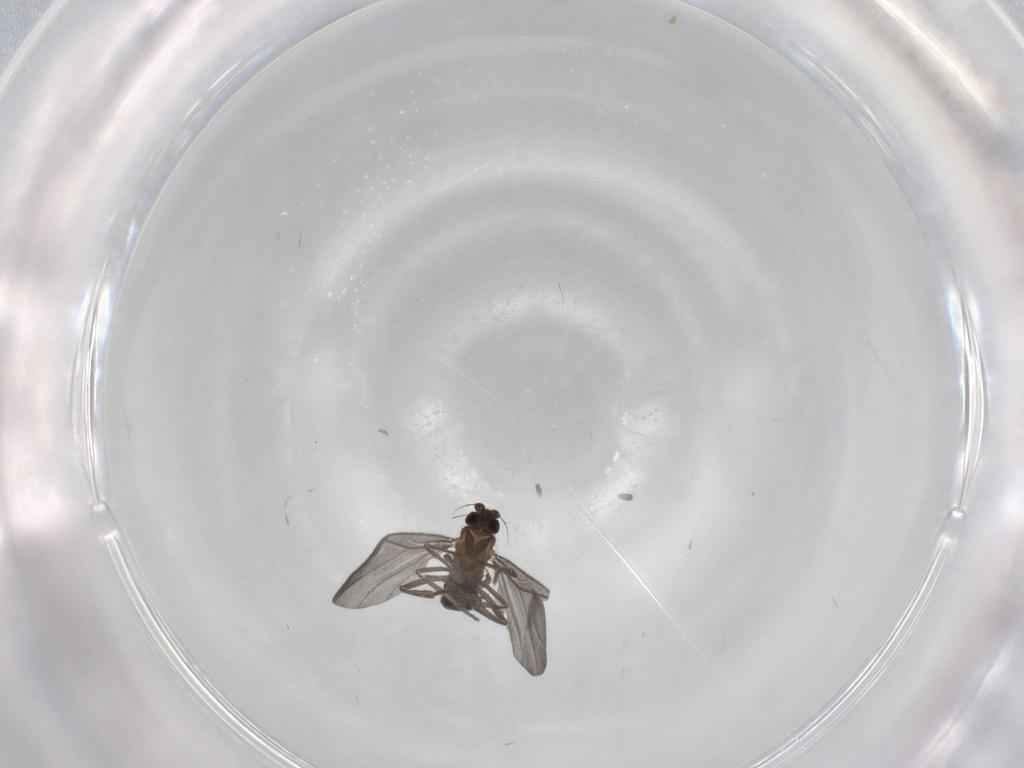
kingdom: Animalia
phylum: Arthropoda
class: Insecta
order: Diptera
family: Phoridae
